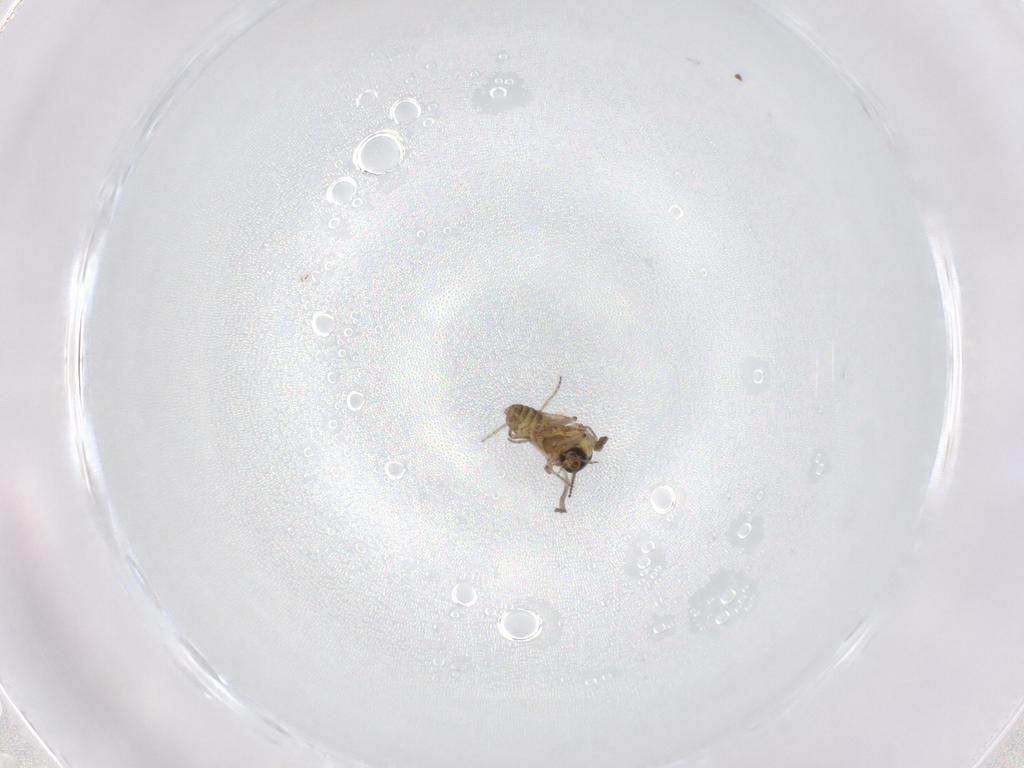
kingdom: Animalia
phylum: Arthropoda
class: Insecta
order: Diptera
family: Ceratopogonidae
